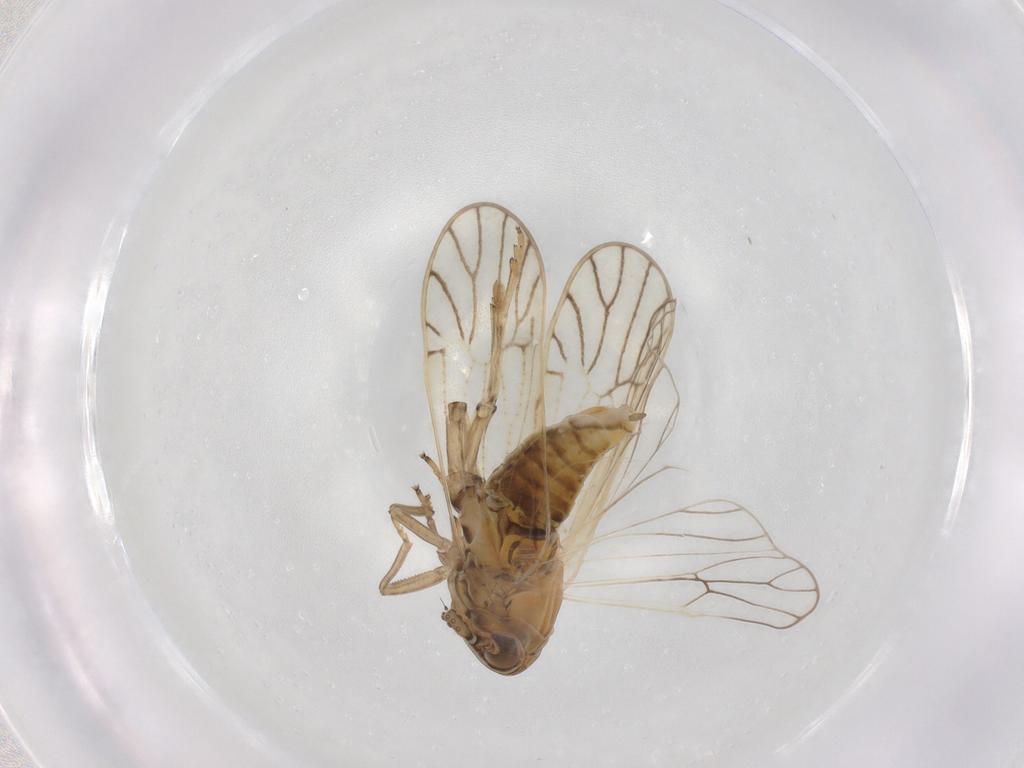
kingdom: Animalia
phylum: Arthropoda
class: Insecta
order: Hemiptera
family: Delphacidae
